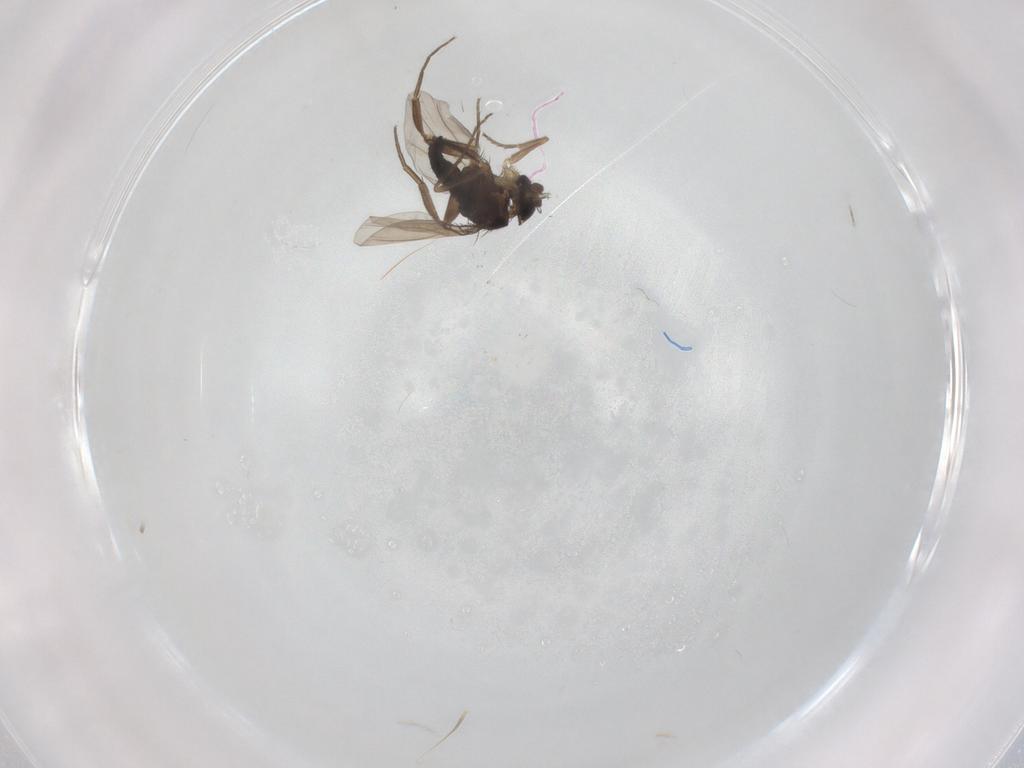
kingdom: Animalia
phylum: Arthropoda
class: Insecta
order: Diptera
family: Phoridae
